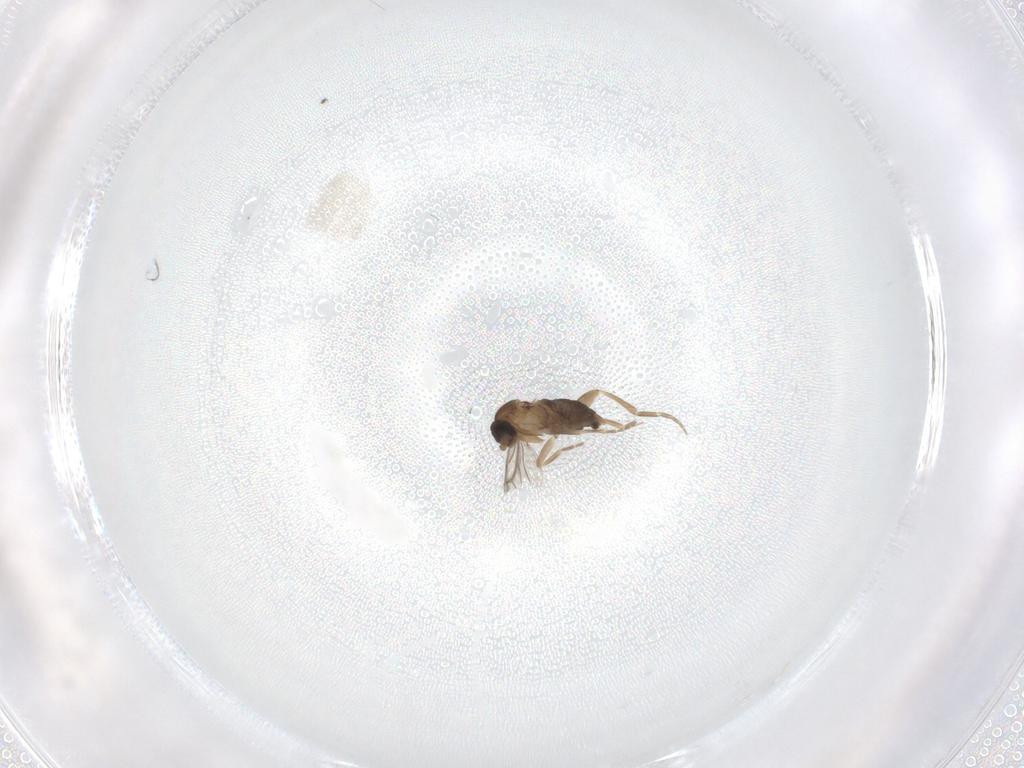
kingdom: Animalia
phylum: Arthropoda
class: Insecta
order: Diptera
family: Phoridae
